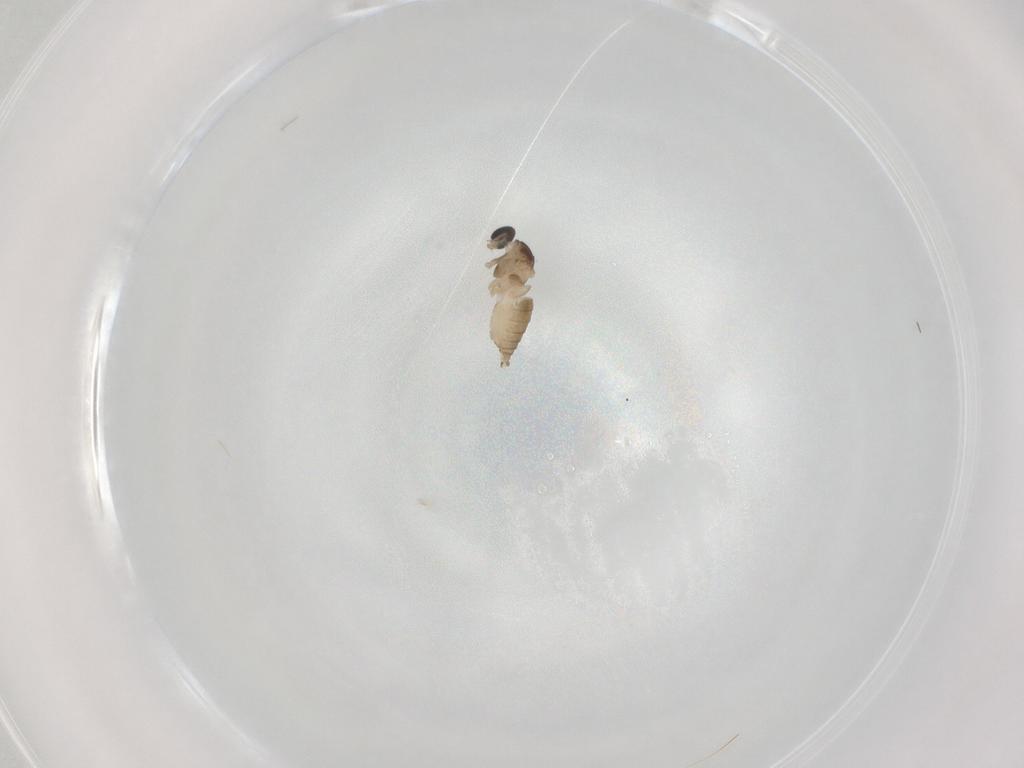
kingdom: Animalia
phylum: Arthropoda
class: Insecta
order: Diptera
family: Cecidomyiidae
